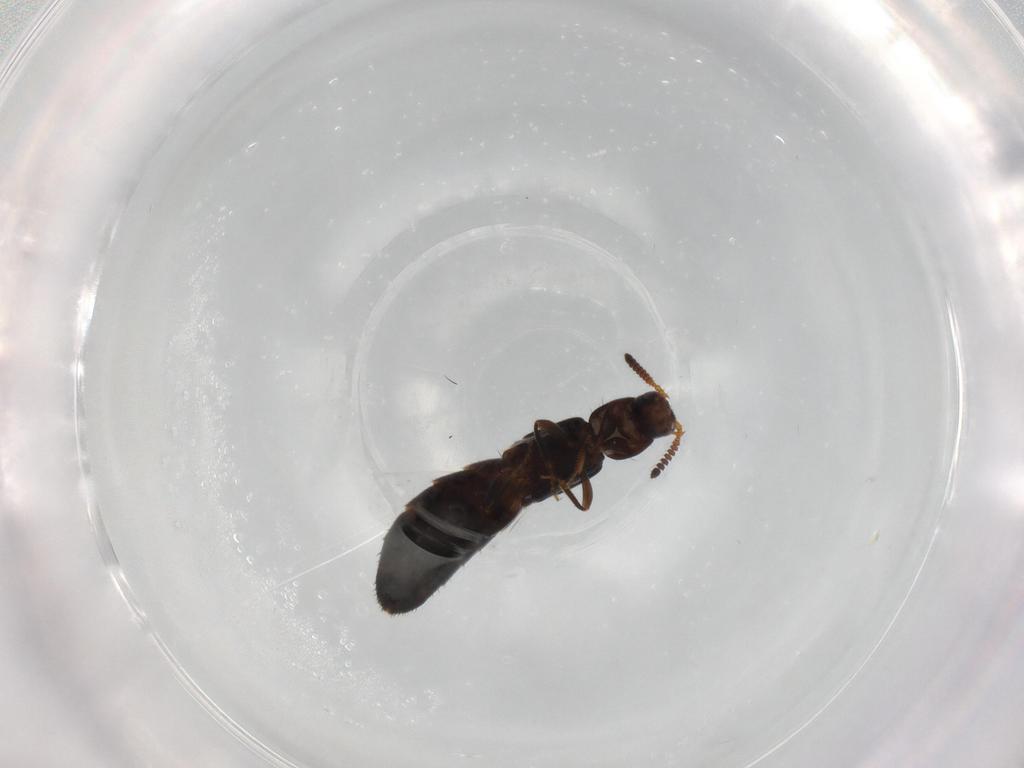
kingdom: Animalia
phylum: Arthropoda
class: Insecta
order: Coleoptera
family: Staphylinidae
